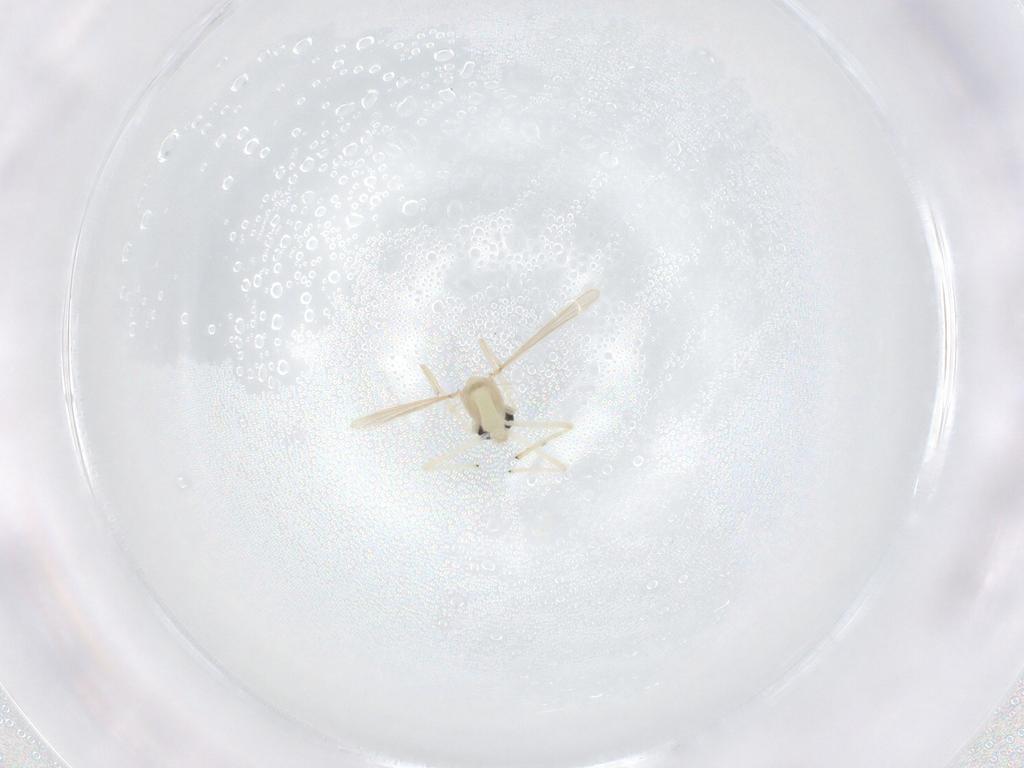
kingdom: Animalia
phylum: Arthropoda
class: Insecta
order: Diptera
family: Chironomidae
